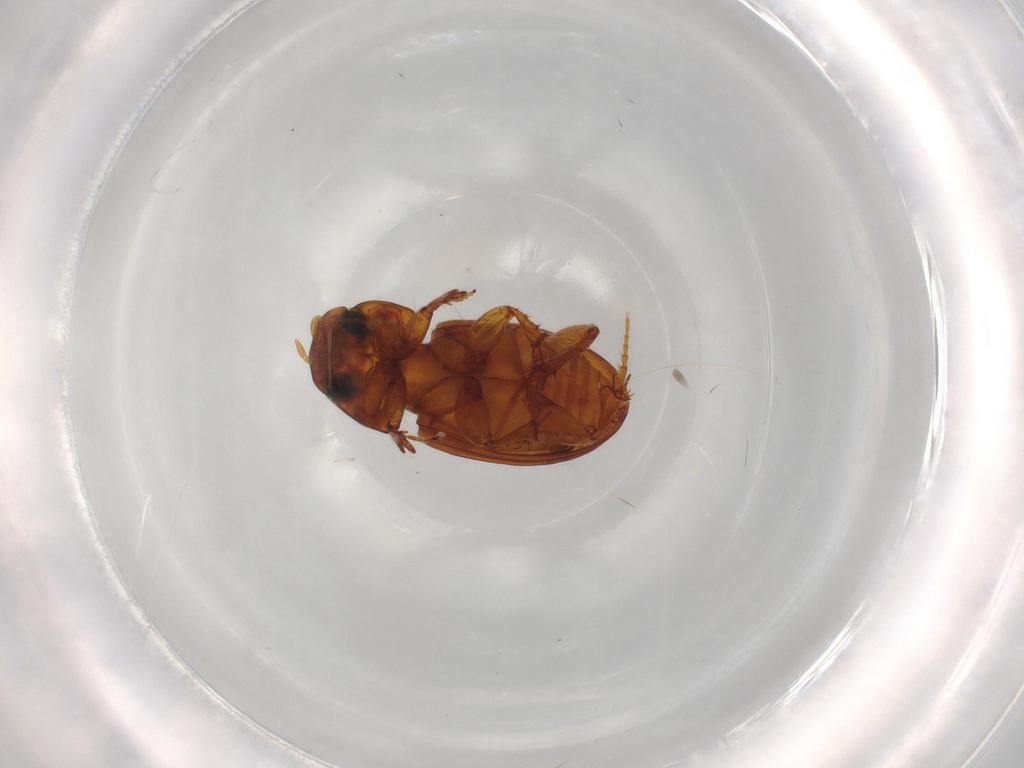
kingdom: Animalia
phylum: Arthropoda
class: Insecta
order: Coleoptera
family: Scarabaeidae
